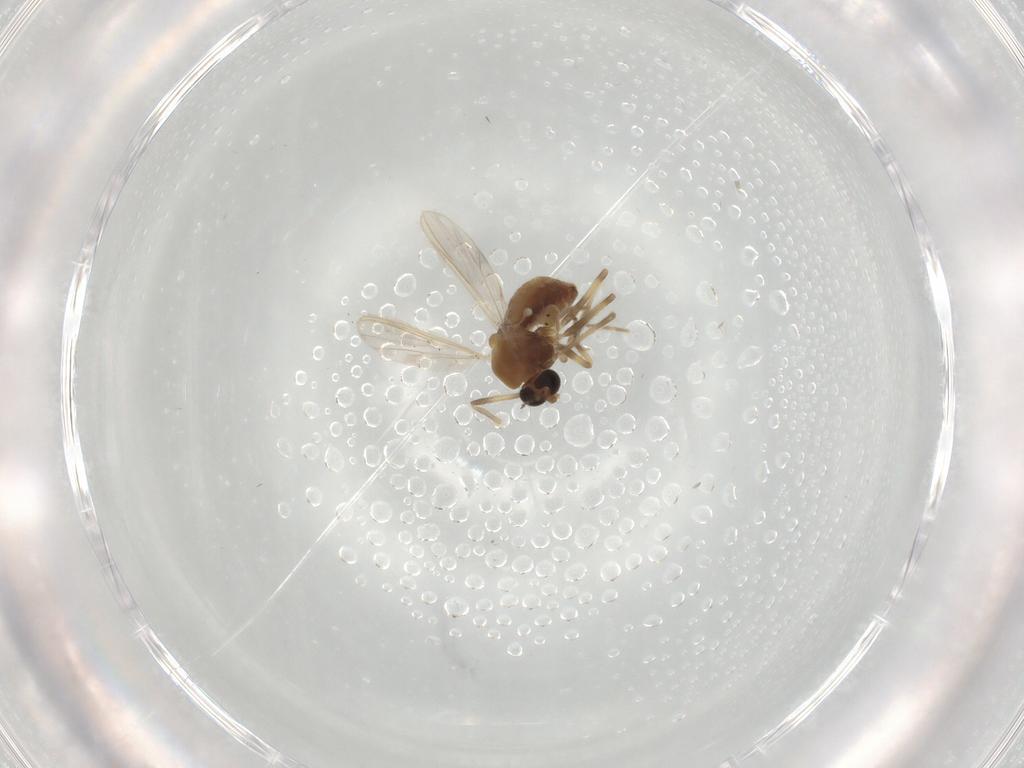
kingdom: Animalia
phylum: Arthropoda
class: Insecta
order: Diptera
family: Chironomidae
